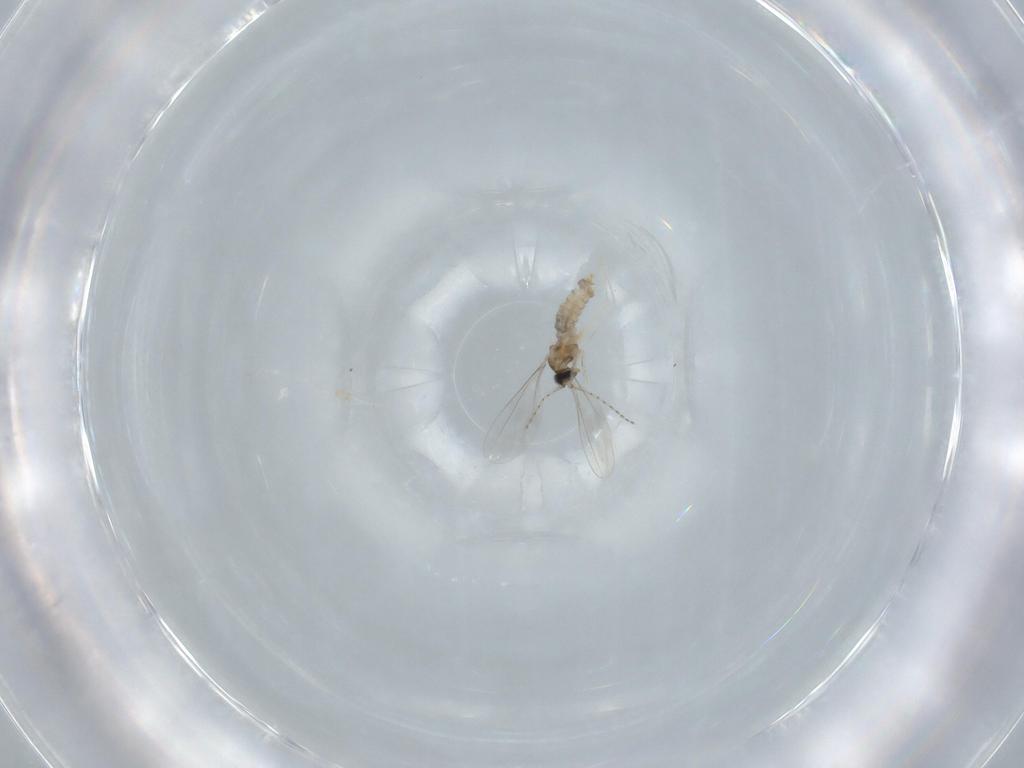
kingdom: Animalia
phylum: Arthropoda
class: Insecta
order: Diptera
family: Cecidomyiidae
